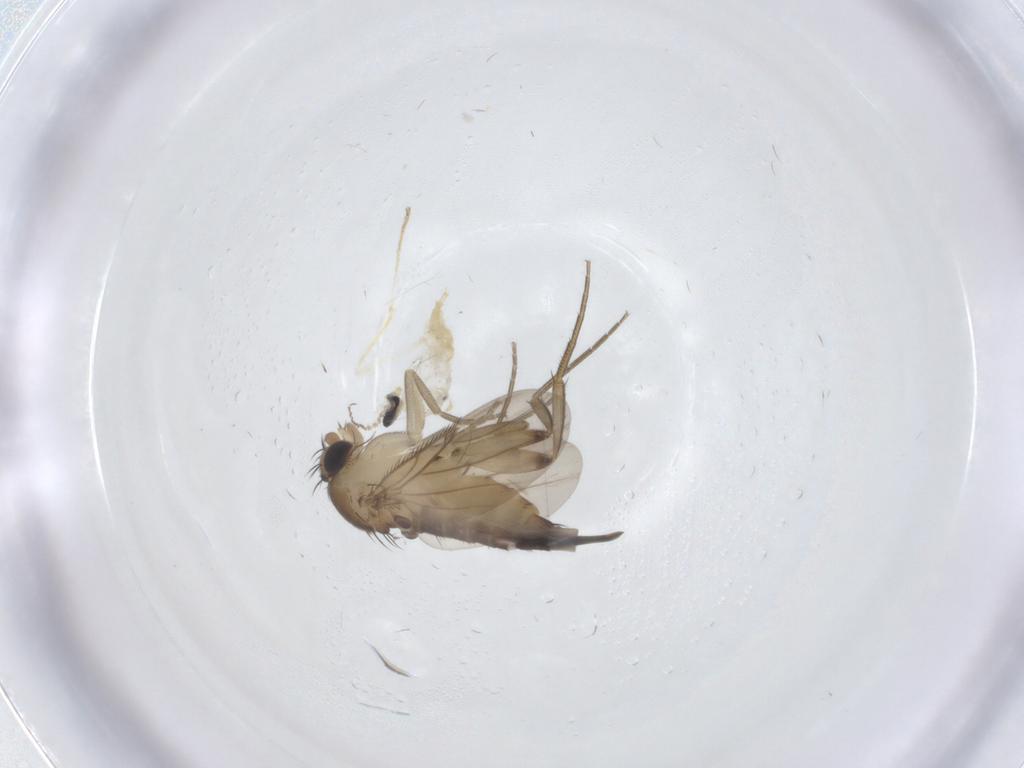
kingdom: Animalia
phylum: Arthropoda
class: Insecta
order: Diptera
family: Cecidomyiidae
